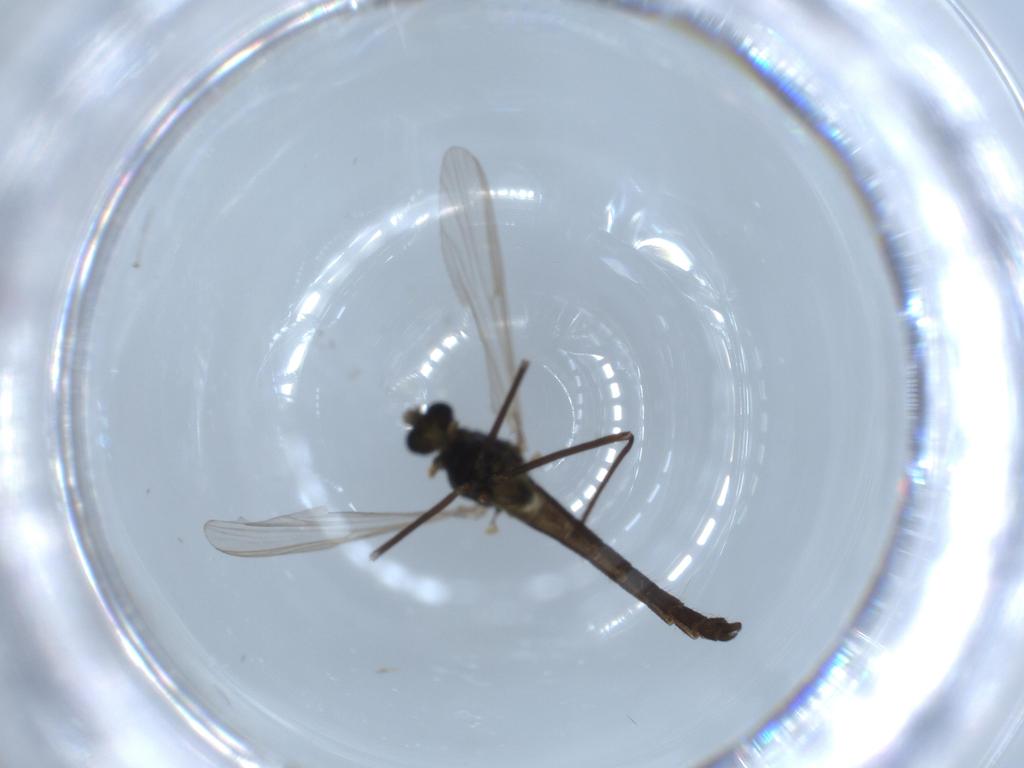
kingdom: Animalia
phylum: Arthropoda
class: Insecta
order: Diptera
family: Chironomidae
